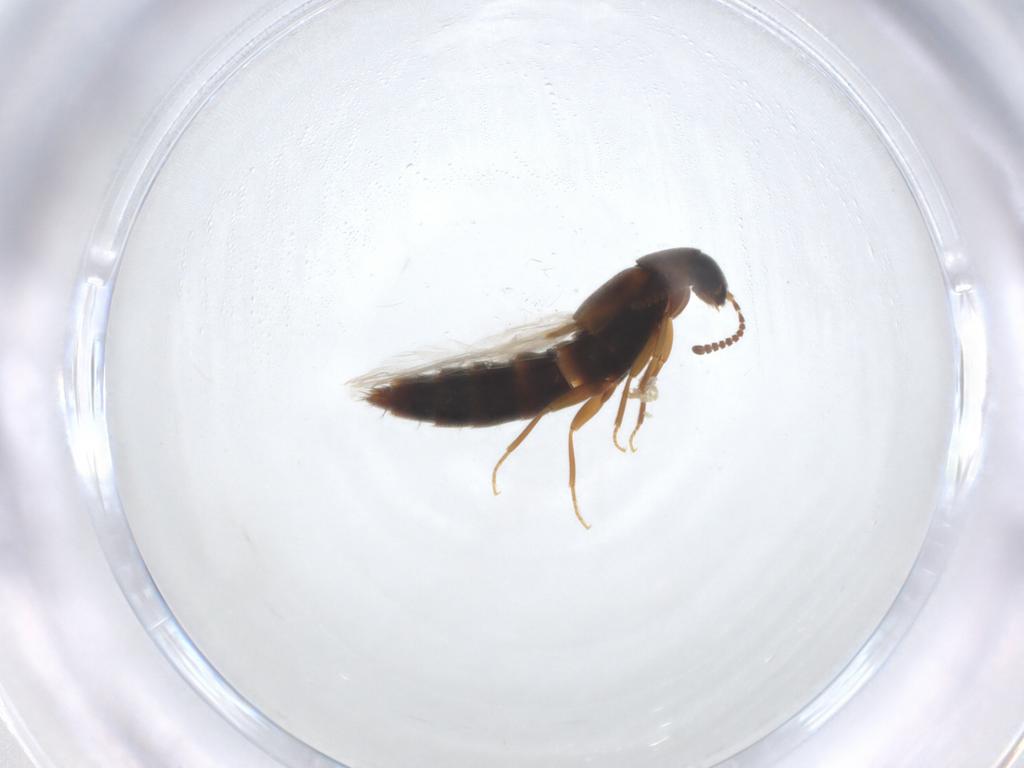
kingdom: Animalia
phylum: Arthropoda
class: Insecta
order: Coleoptera
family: Staphylinidae
